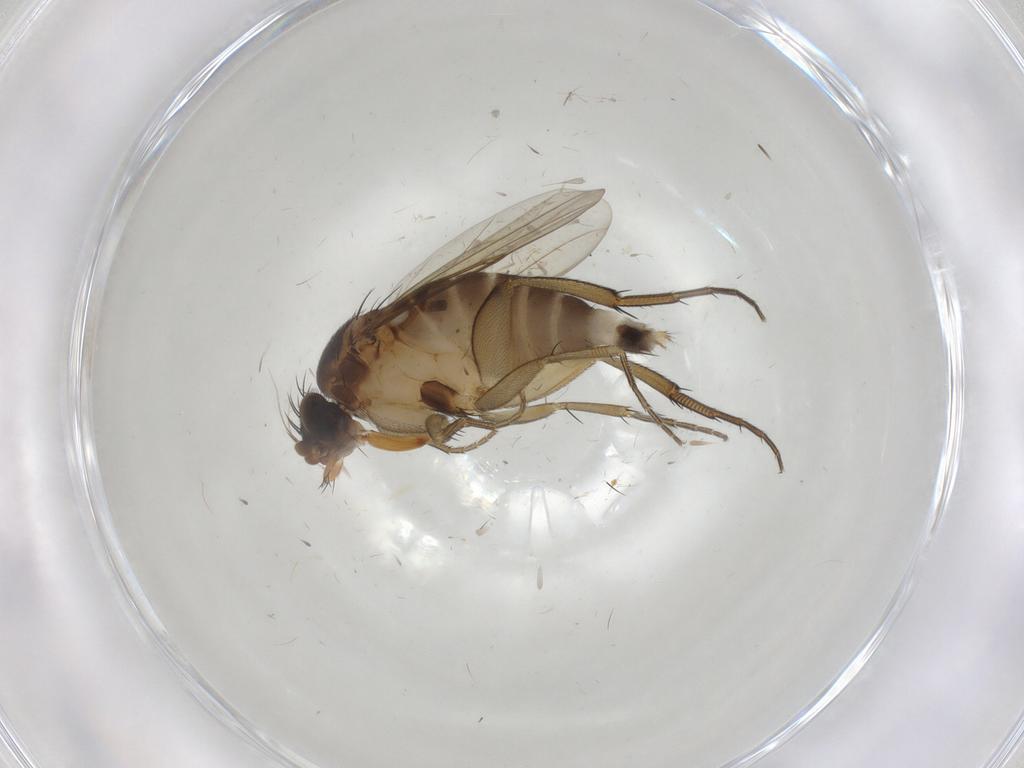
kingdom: Animalia
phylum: Arthropoda
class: Insecta
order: Diptera
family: Phoridae
